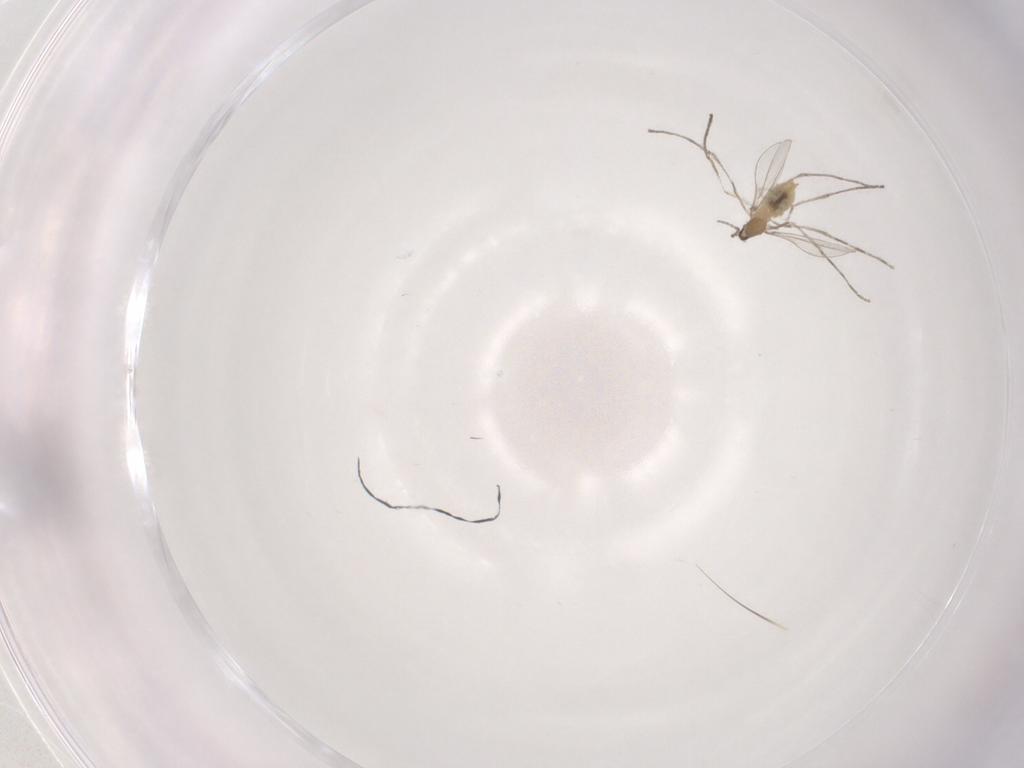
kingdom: Animalia
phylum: Arthropoda
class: Insecta
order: Diptera
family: Cecidomyiidae
